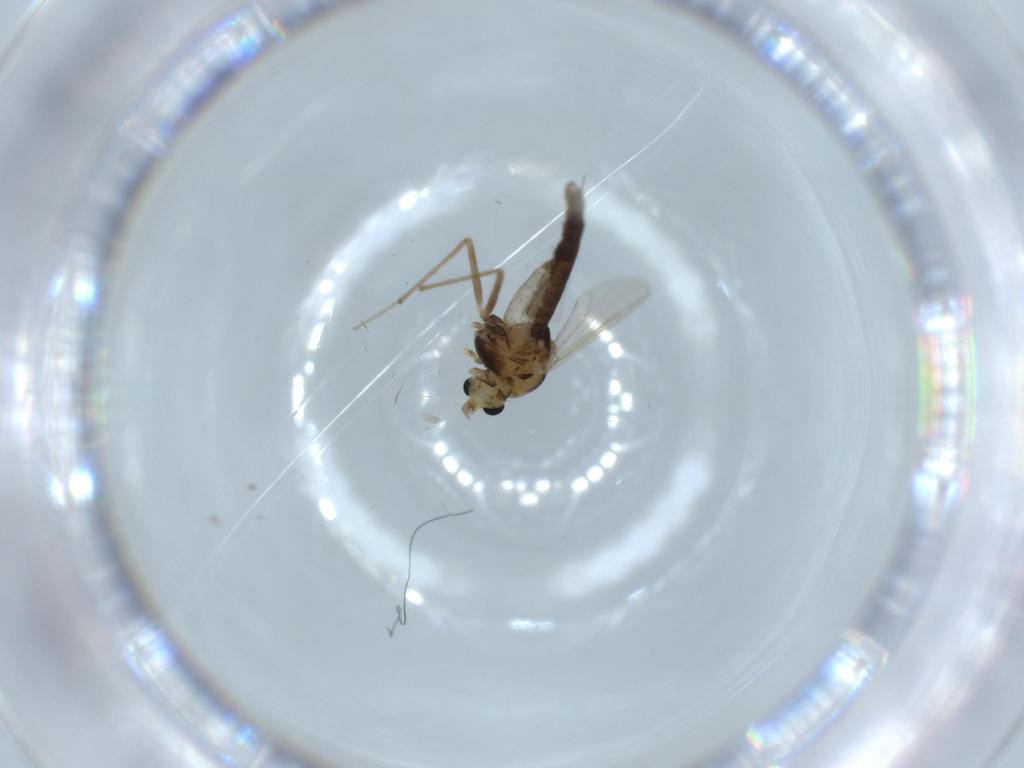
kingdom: Animalia
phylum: Arthropoda
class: Insecta
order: Diptera
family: Chironomidae
